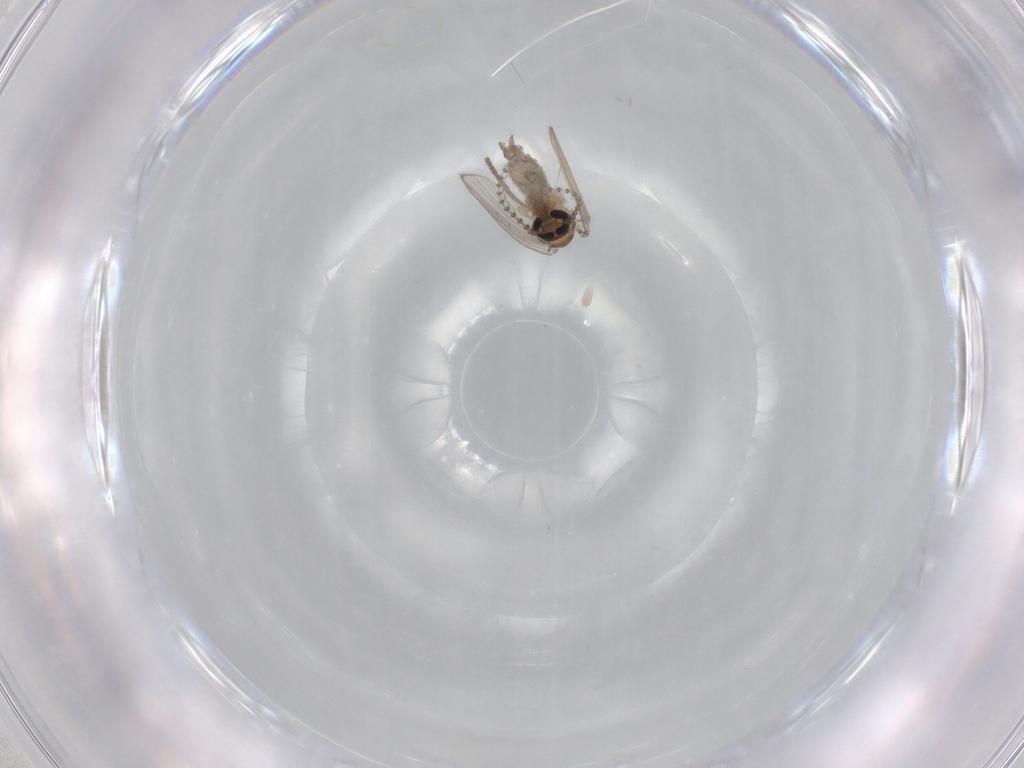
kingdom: Animalia
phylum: Arthropoda
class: Insecta
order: Diptera
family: Psychodidae
